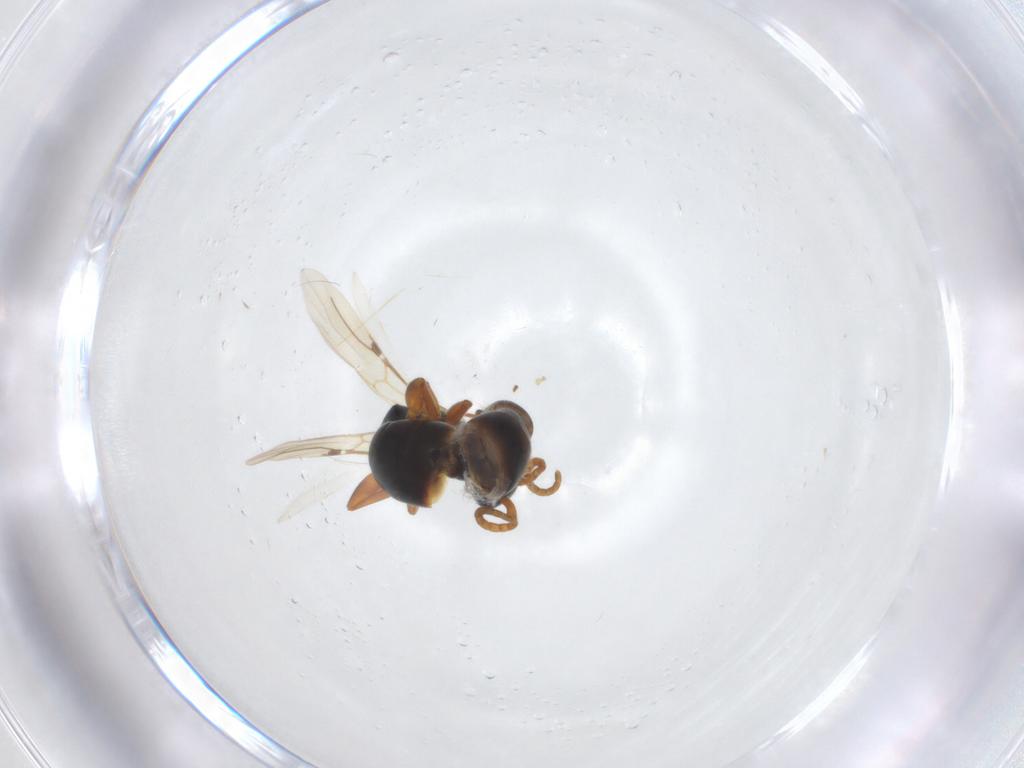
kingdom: Animalia
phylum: Arthropoda
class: Insecta
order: Hymenoptera
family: Bethylidae
